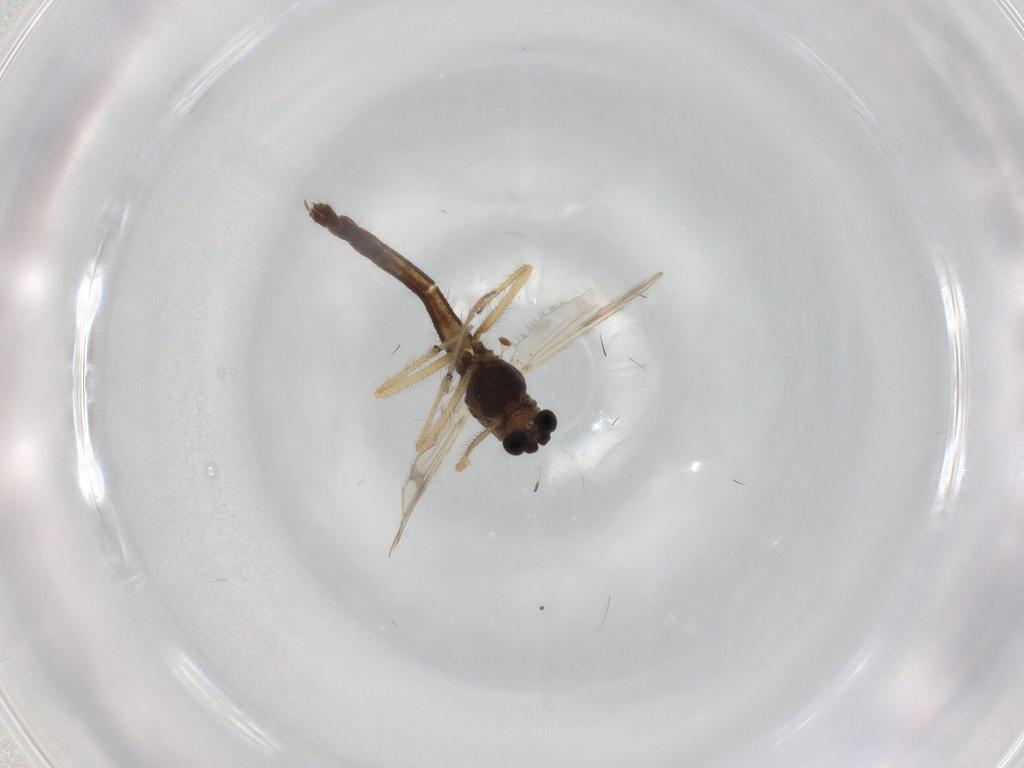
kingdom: Animalia
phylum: Arthropoda
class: Insecta
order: Diptera
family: Chironomidae
